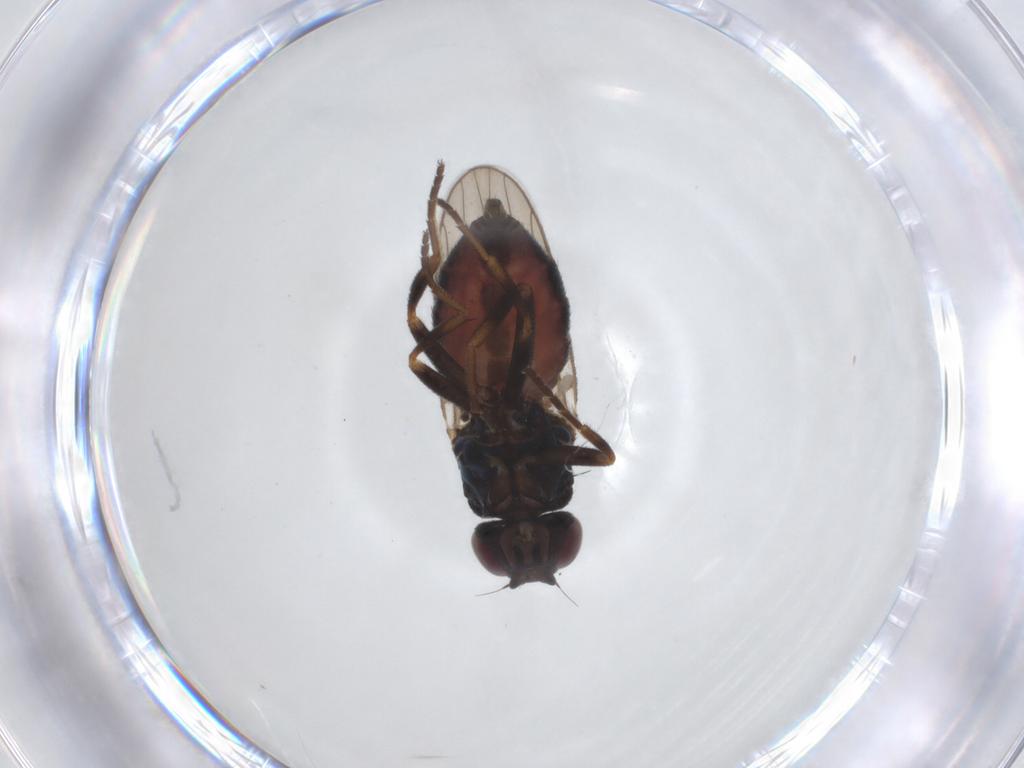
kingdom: Animalia
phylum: Arthropoda
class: Insecta
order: Diptera
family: Chloropidae
